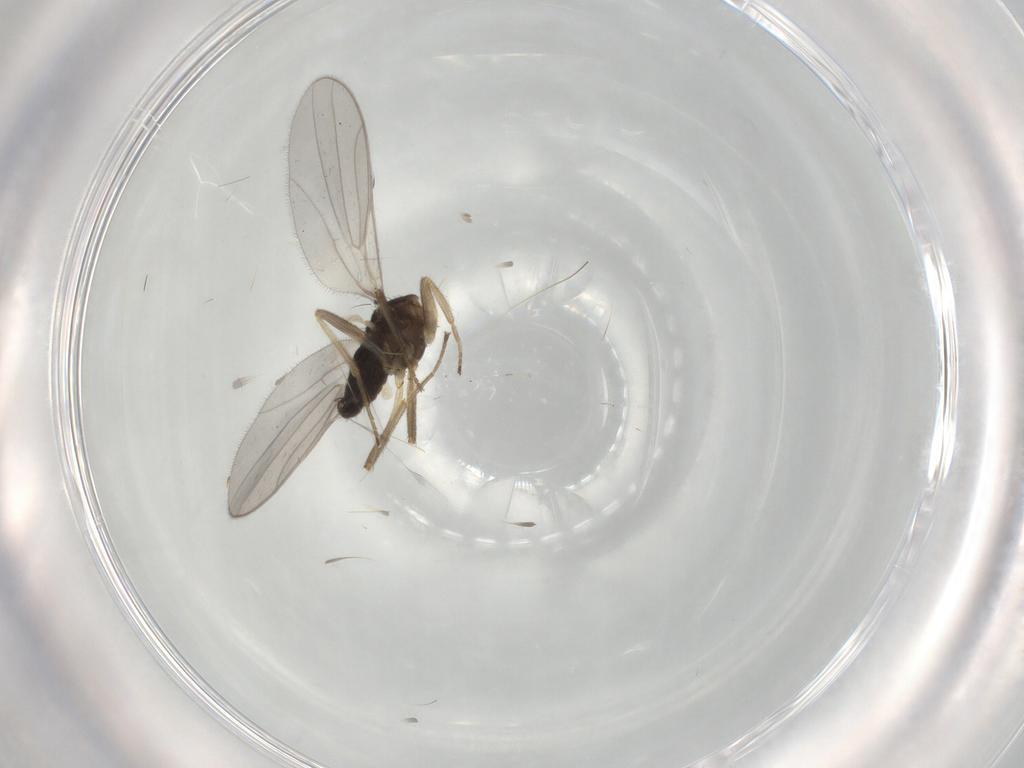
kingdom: Animalia
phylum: Arthropoda
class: Insecta
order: Diptera
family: Hybotidae
